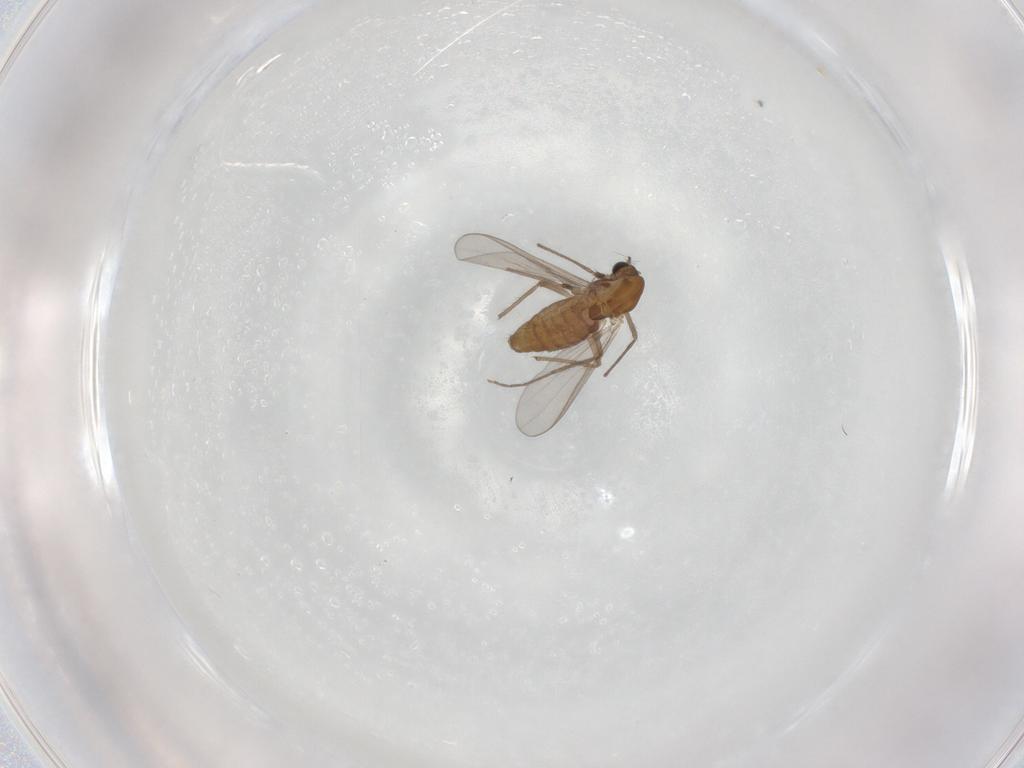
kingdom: Animalia
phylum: Arthropoda
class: Insecta
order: Diptera
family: Chironomidae
